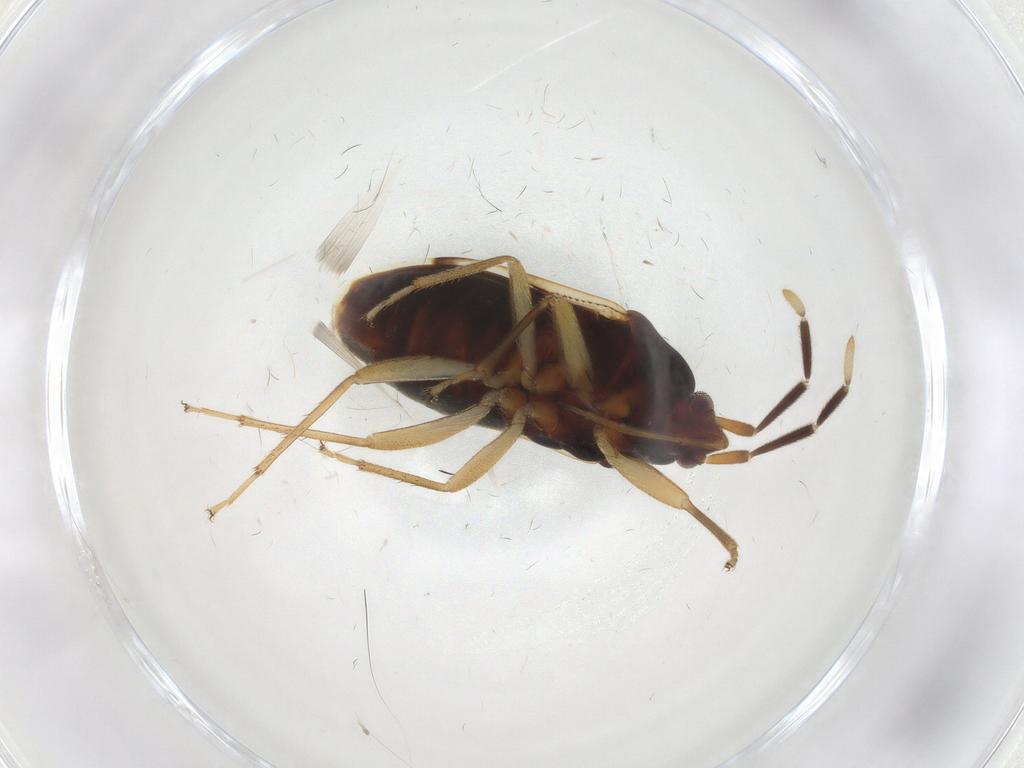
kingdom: Animalia
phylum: Arthropoda
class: Insecta
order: Hemiptera
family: Rhyparochromidae
